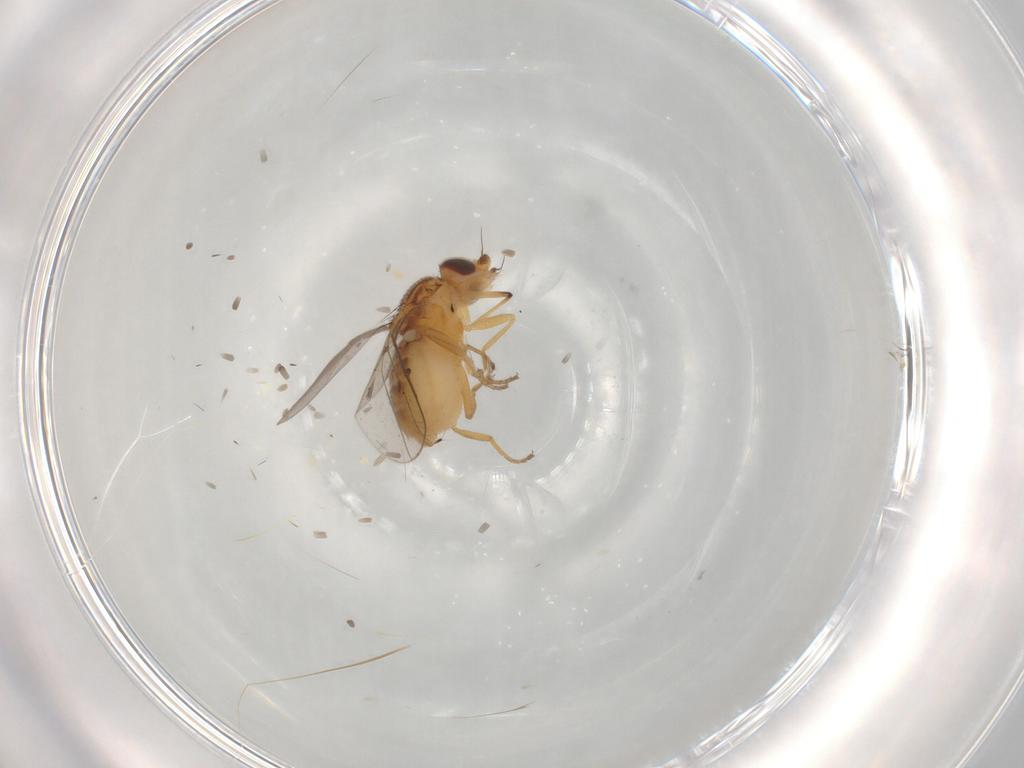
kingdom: Animalia
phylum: Arthropoda
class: Insecta
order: Diptera
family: Chloropidae
